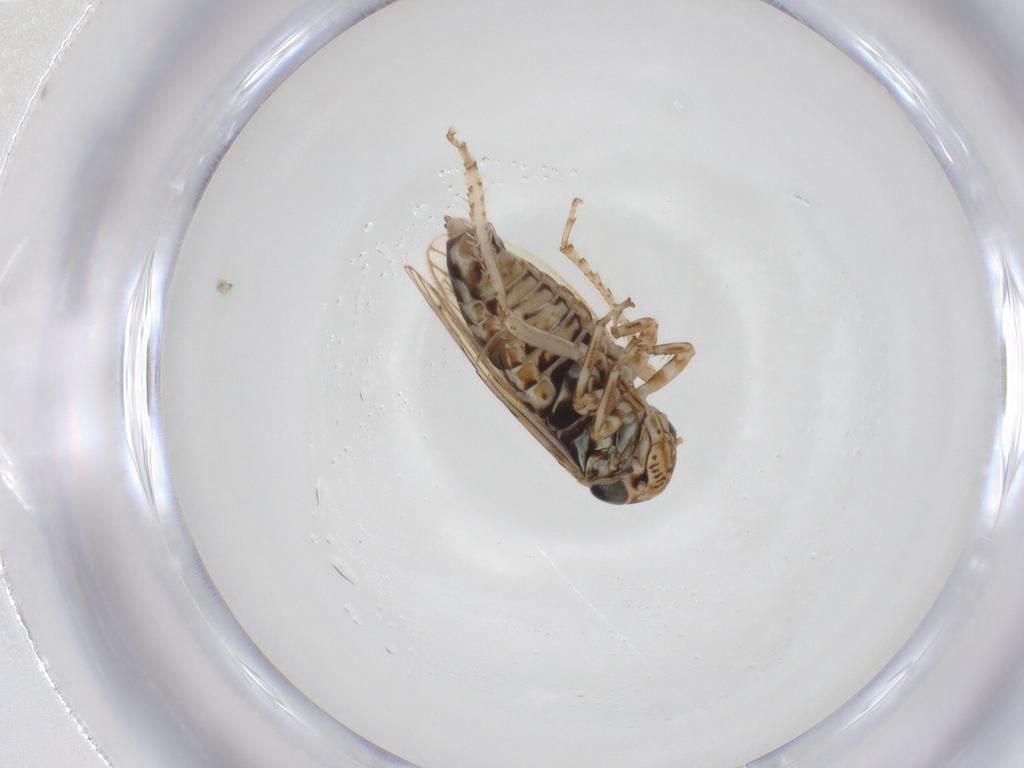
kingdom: Animalia
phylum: Arthropoda
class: Insecta
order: Hemiptera
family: Cicadellidae
